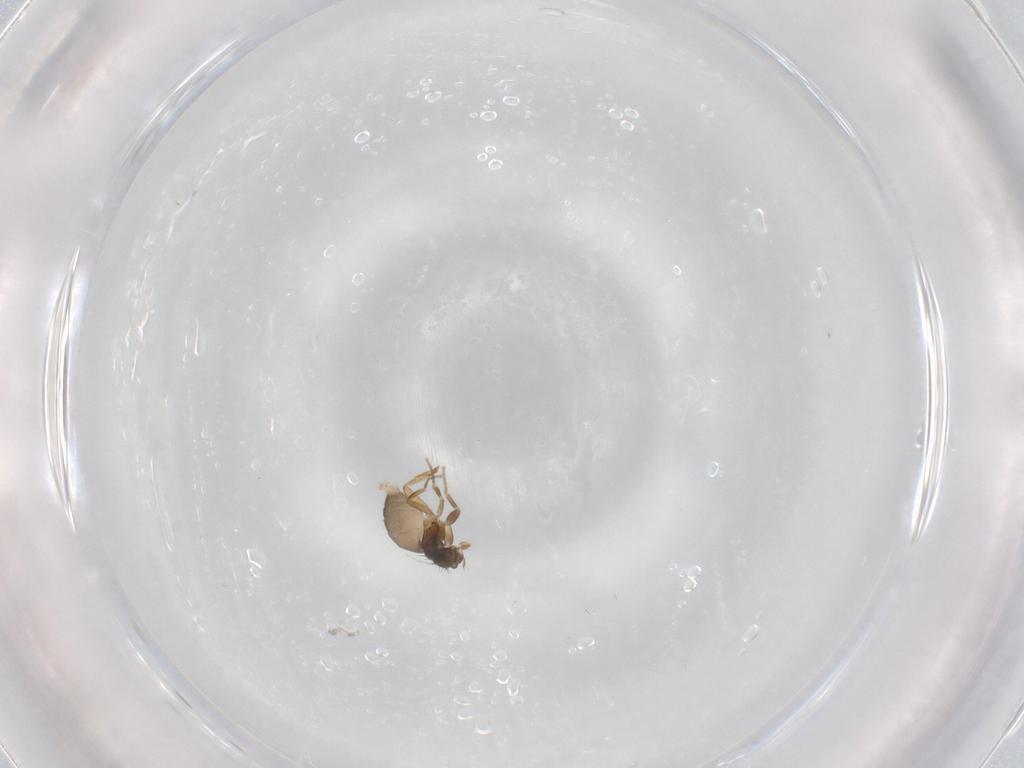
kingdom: Animalia
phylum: Arthropoda
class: Insecta
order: Diptera
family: Phoridae
